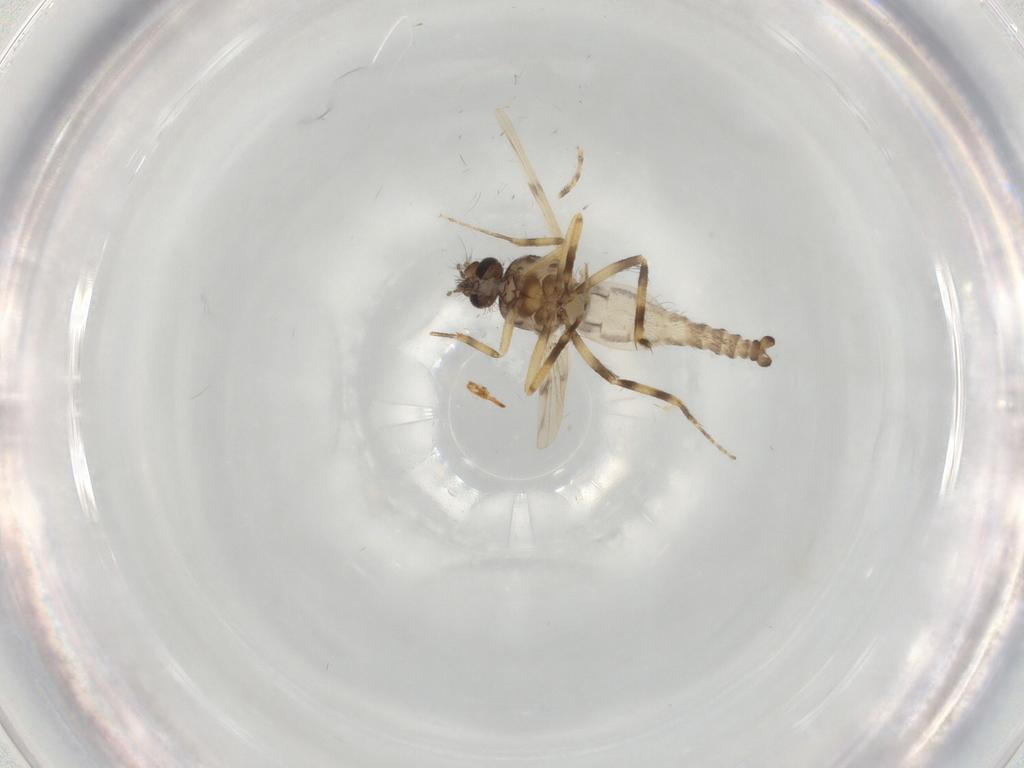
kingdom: Animalia
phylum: Arthropoda
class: Insecta
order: Diptera
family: Ceratopogonidae
